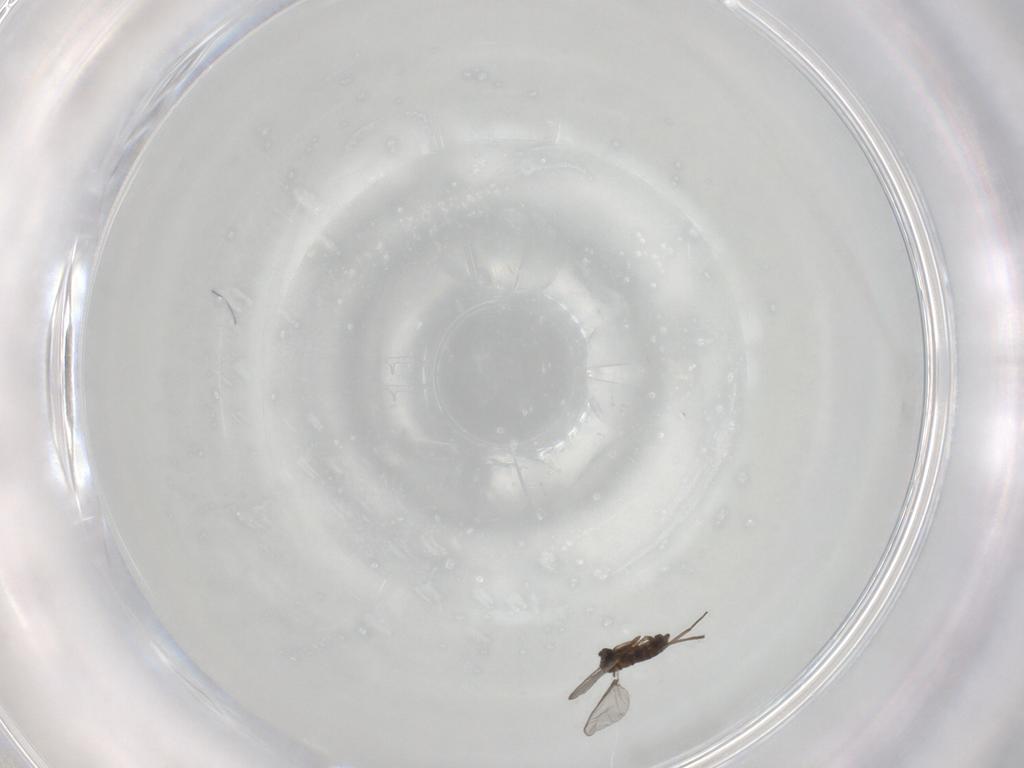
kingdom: Animalia
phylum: Arthropoda
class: Insecta
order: Diptera
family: Sciaridae
